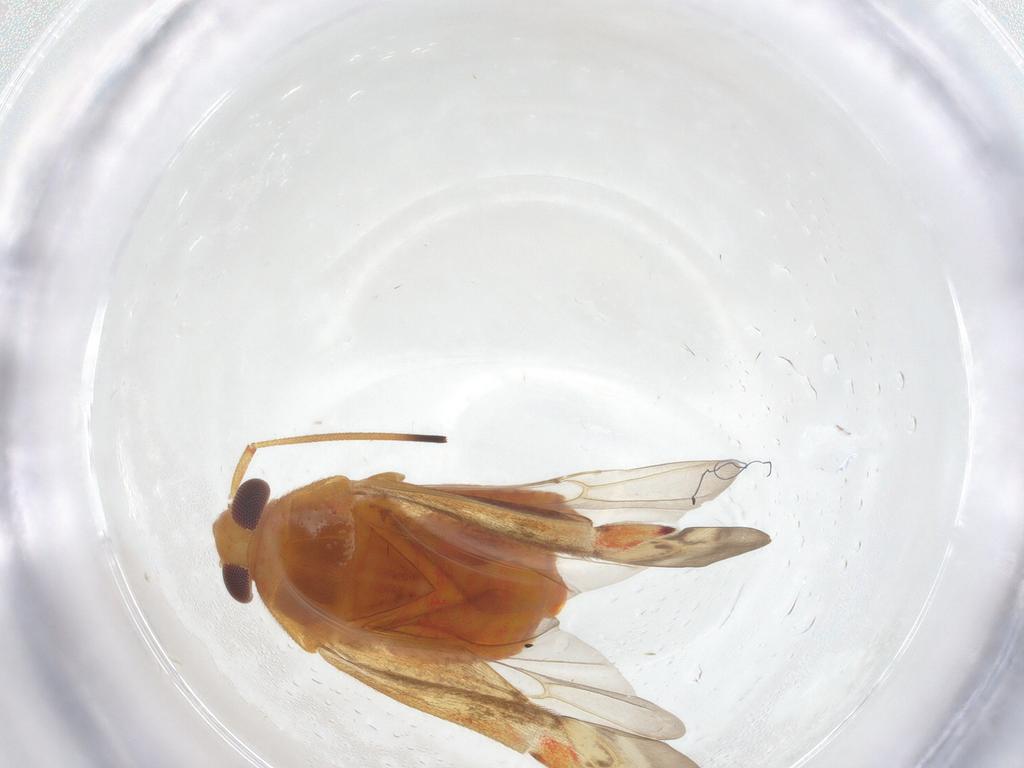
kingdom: Animalia
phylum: Arthropoda
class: Insecta
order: Hemiptera
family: Miridae
